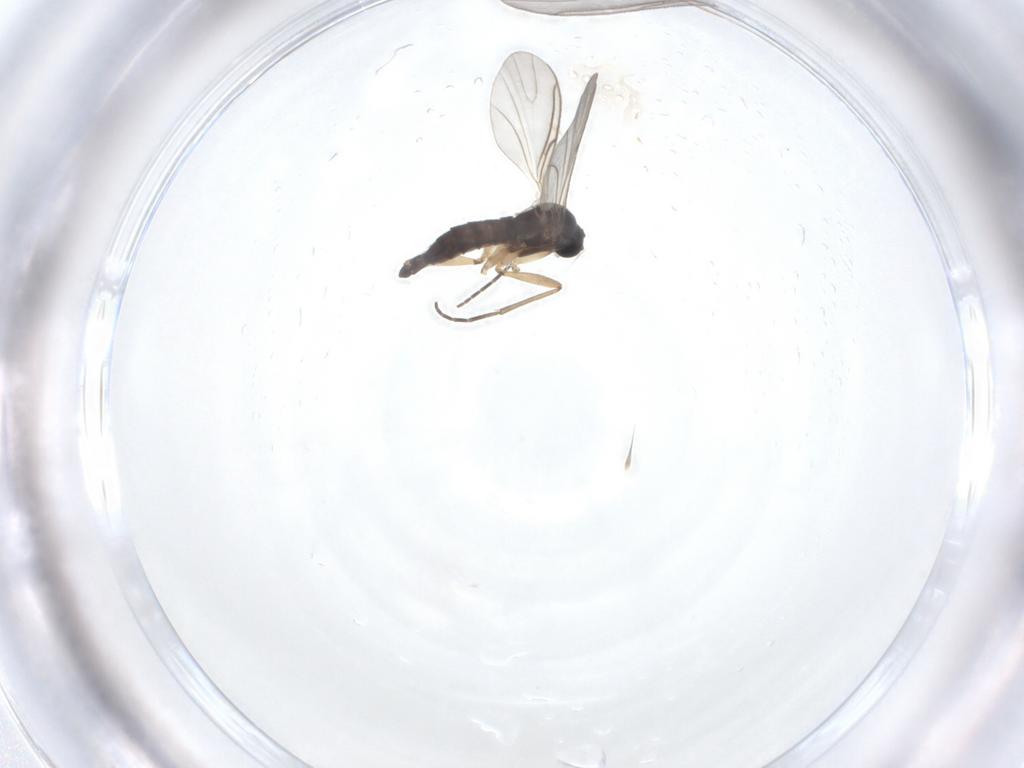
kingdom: Animalia
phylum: Arthropoda
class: Insecta
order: Diptera
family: Sciaridae
